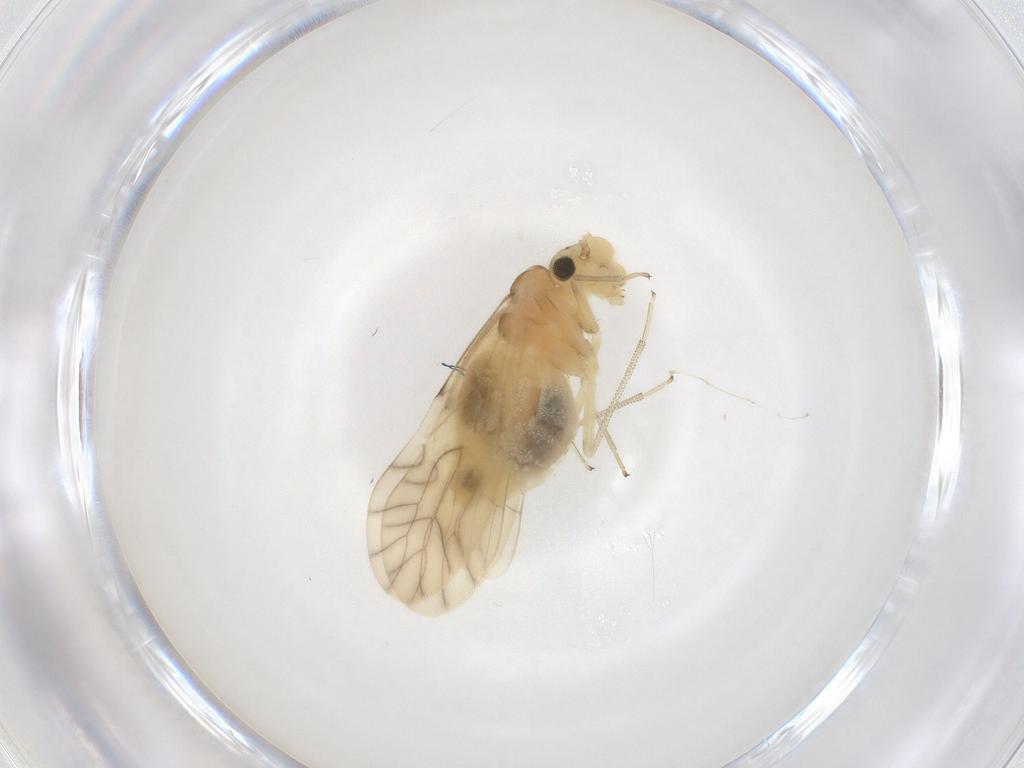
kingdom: Animalia
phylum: Arthropoda
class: Insecta
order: Psocodea
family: Caeciliusidae
